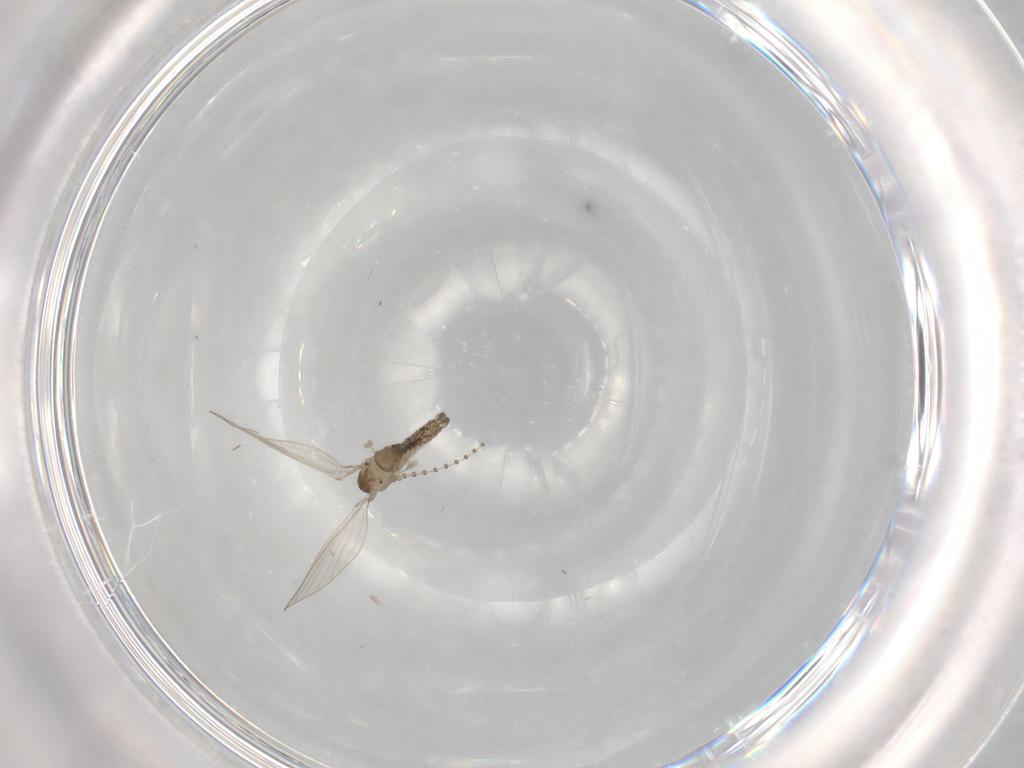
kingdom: Animalia
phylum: Arthropoda
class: Insecta
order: Diptera
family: Psychodidae
